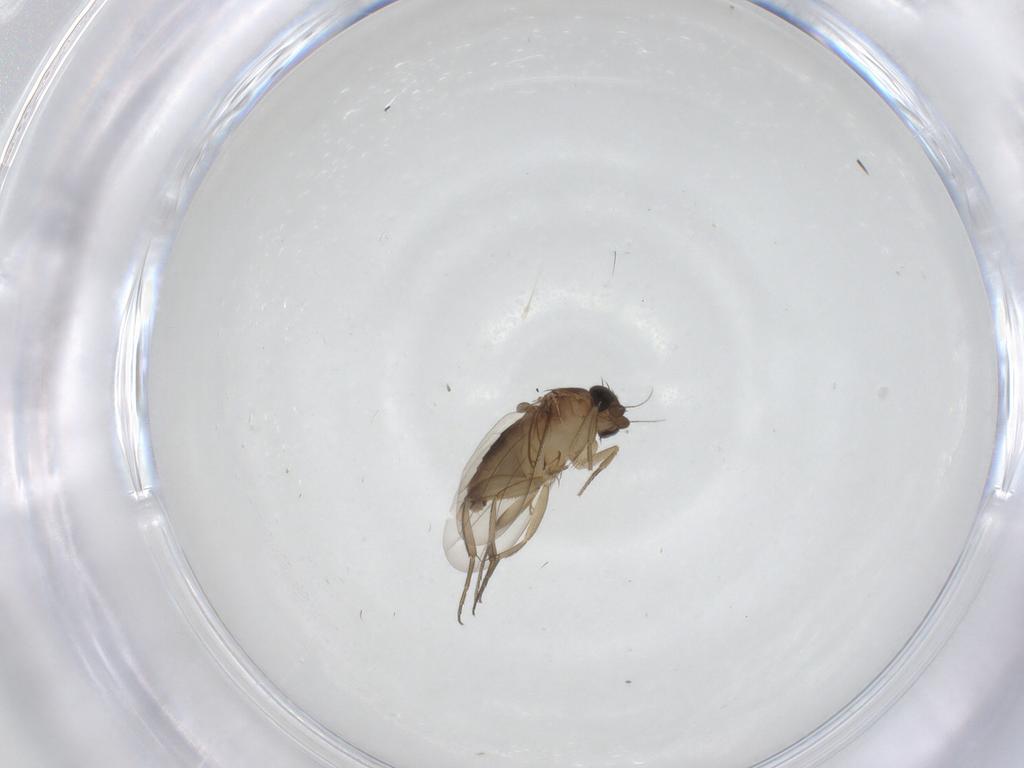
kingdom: Animalia
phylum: Arthropoda
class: Insecta
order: Diptera
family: Phoridae
